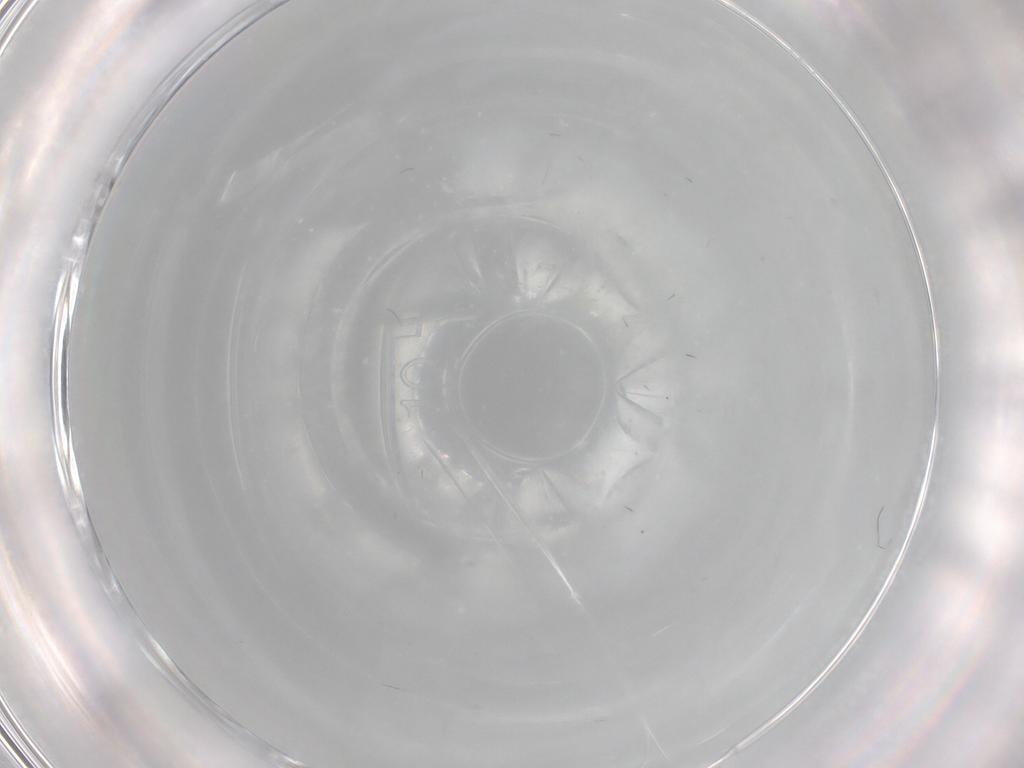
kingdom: Animalia
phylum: Arthropoda
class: Insecta
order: Hymenoptera
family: Platygastridae
